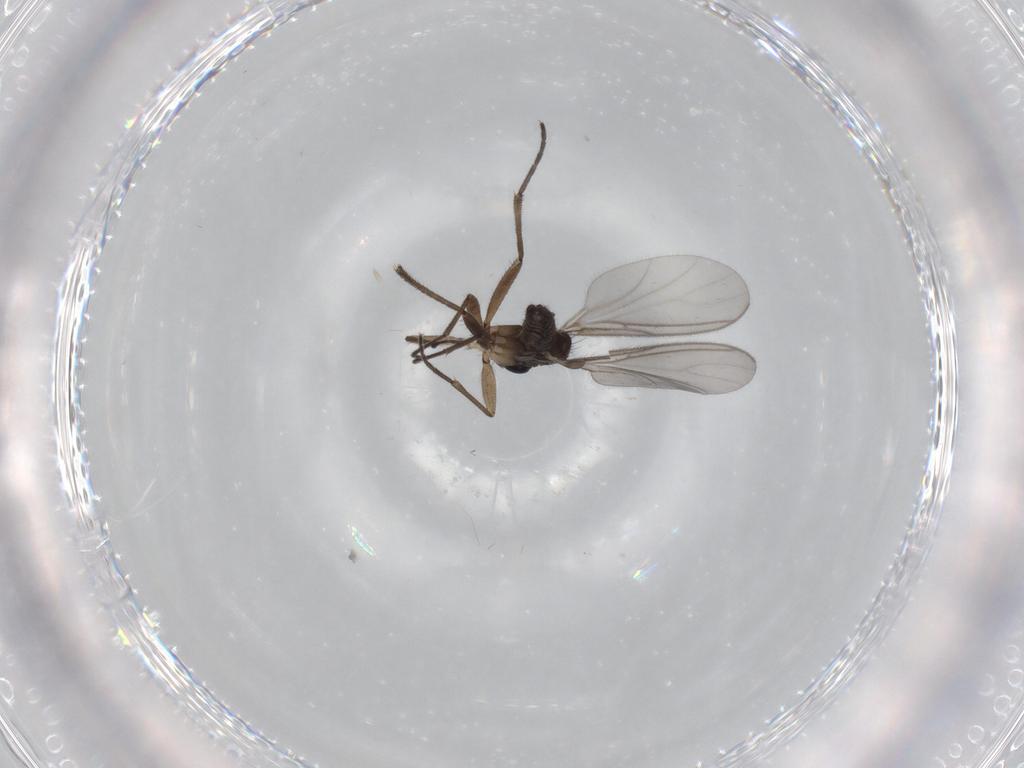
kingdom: Animalia
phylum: Arthropoda
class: Insecta
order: Diptera
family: Sciaridae
